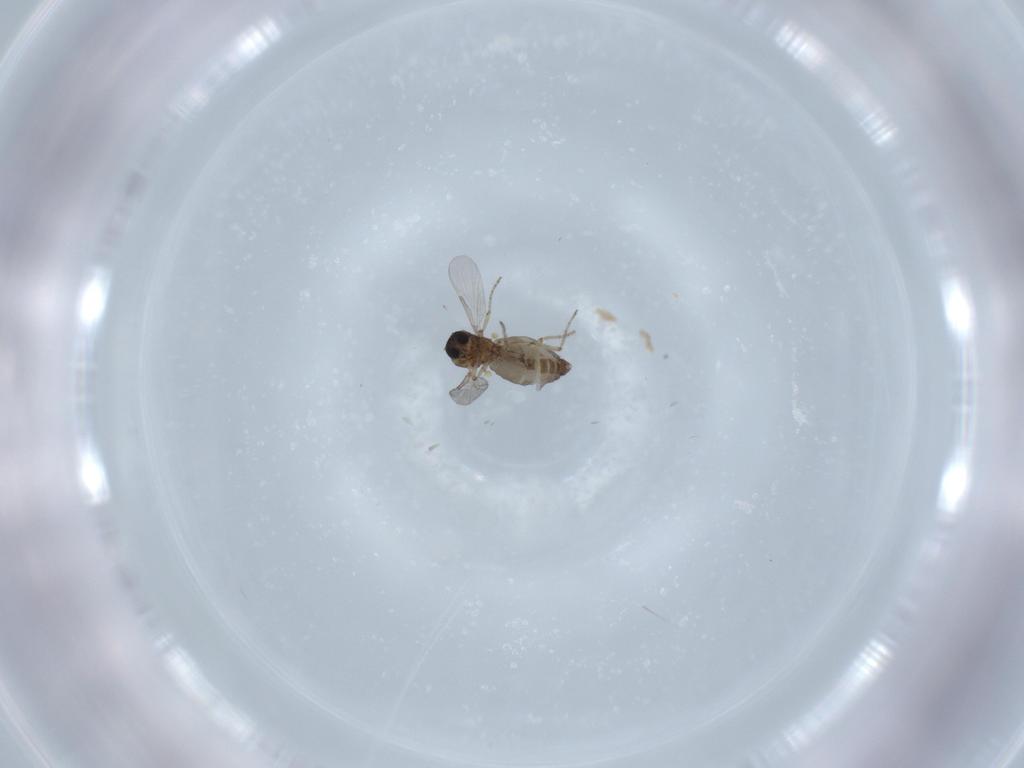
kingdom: Animalia
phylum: Arthropoda
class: Insecta
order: Diptera
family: Ceratopogonidae
